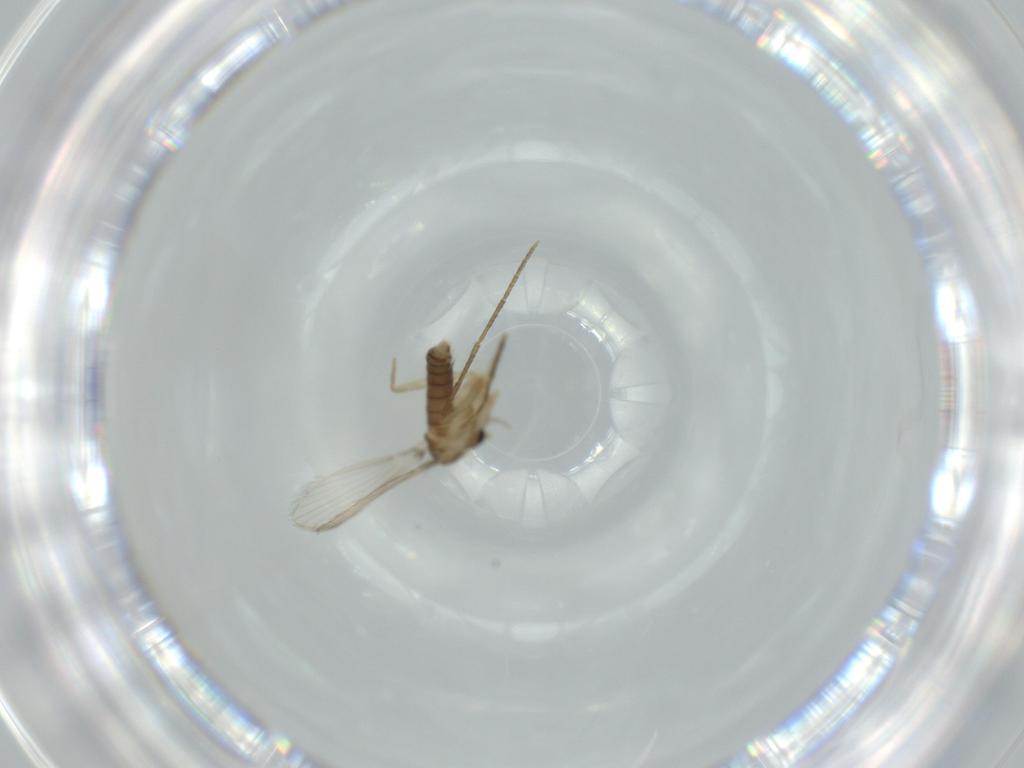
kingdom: Animalia
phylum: Arthropoda
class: Insecta
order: Diptera
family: Psychodidae
